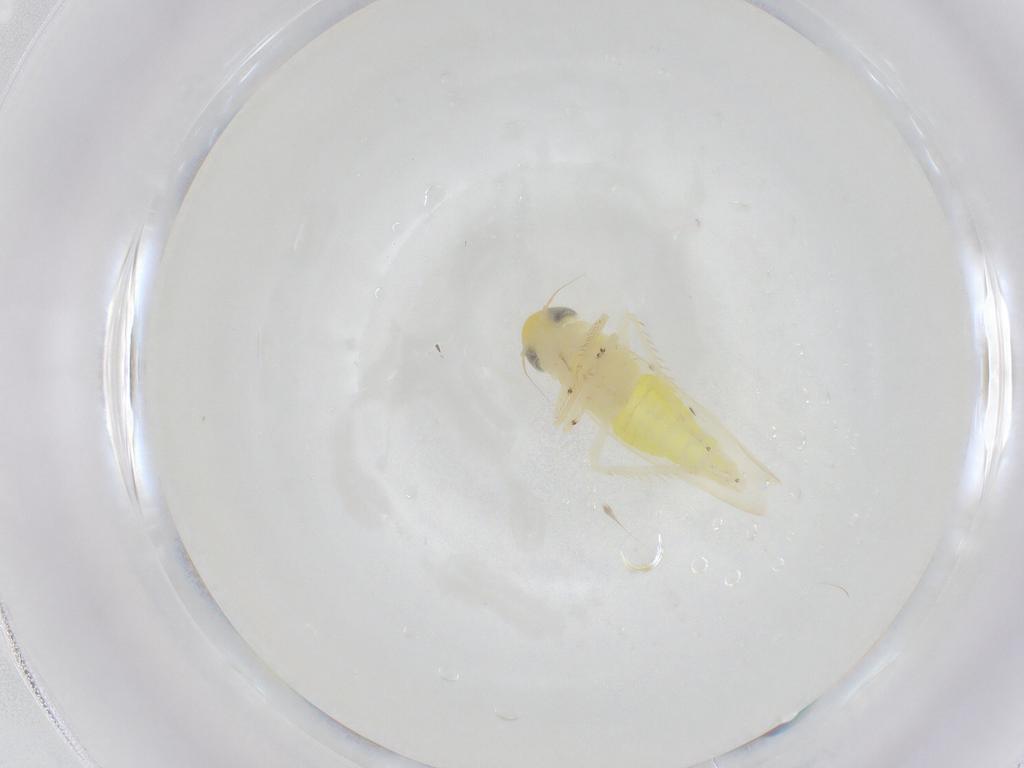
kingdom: Animalia
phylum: Arthropoda
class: Insecta
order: Hemiptera
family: Cicadellidae
